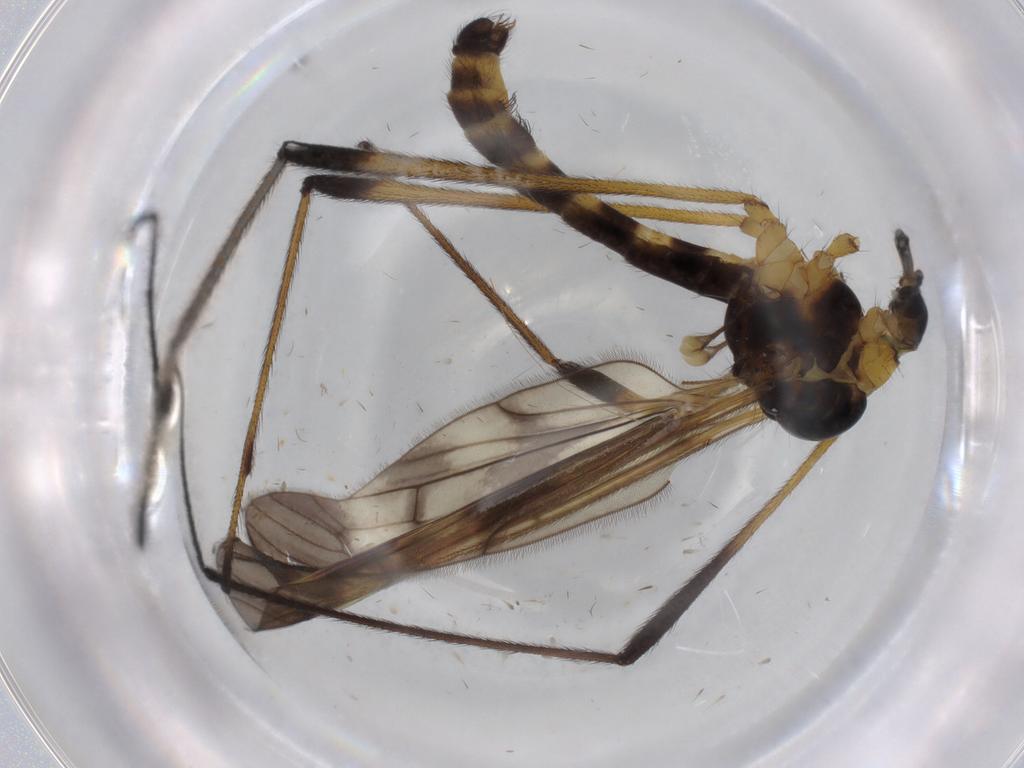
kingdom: Animalia
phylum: Arthropoda
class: Insecta
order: Diptera
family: Limoniidae
